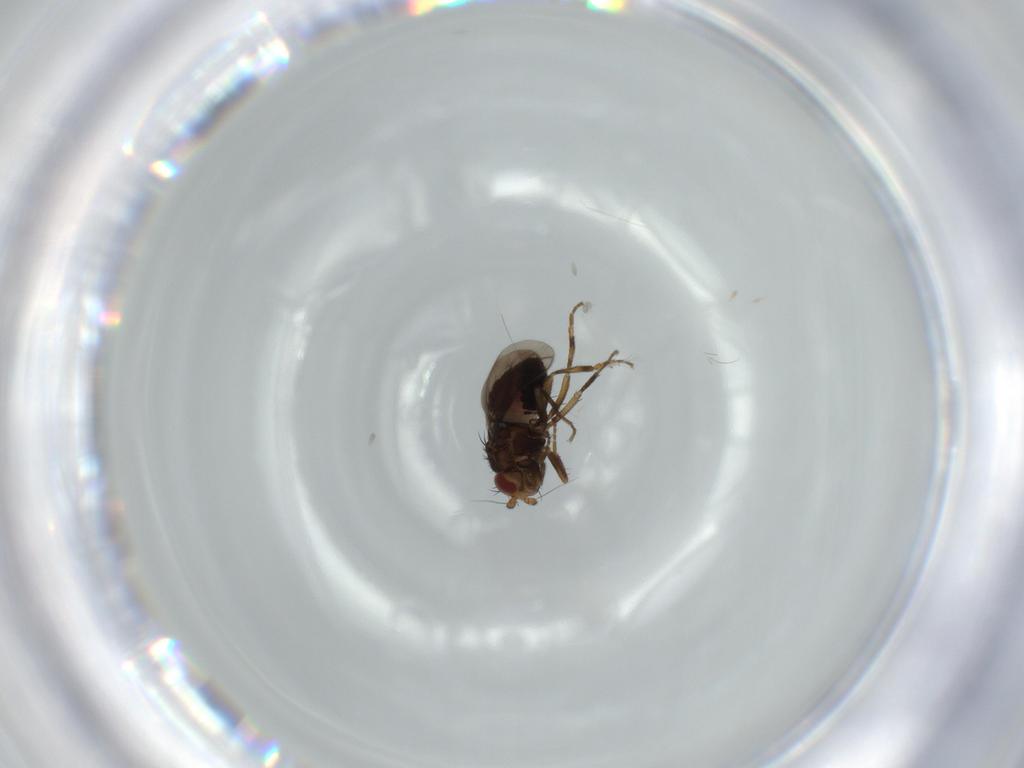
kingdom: Animalia
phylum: Arthropoda
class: Insecta
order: Diptera
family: Sphaeroceridae
